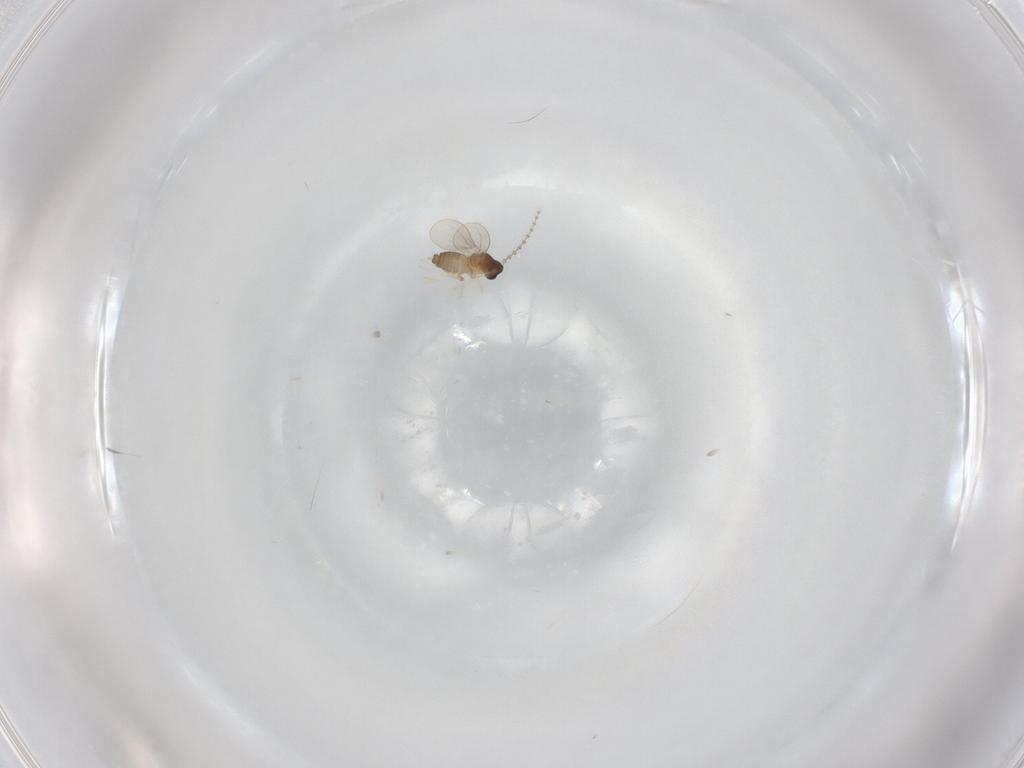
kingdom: Animalia
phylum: Arthropoda
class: Insecta
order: Diptera
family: Cecidomyiidae
